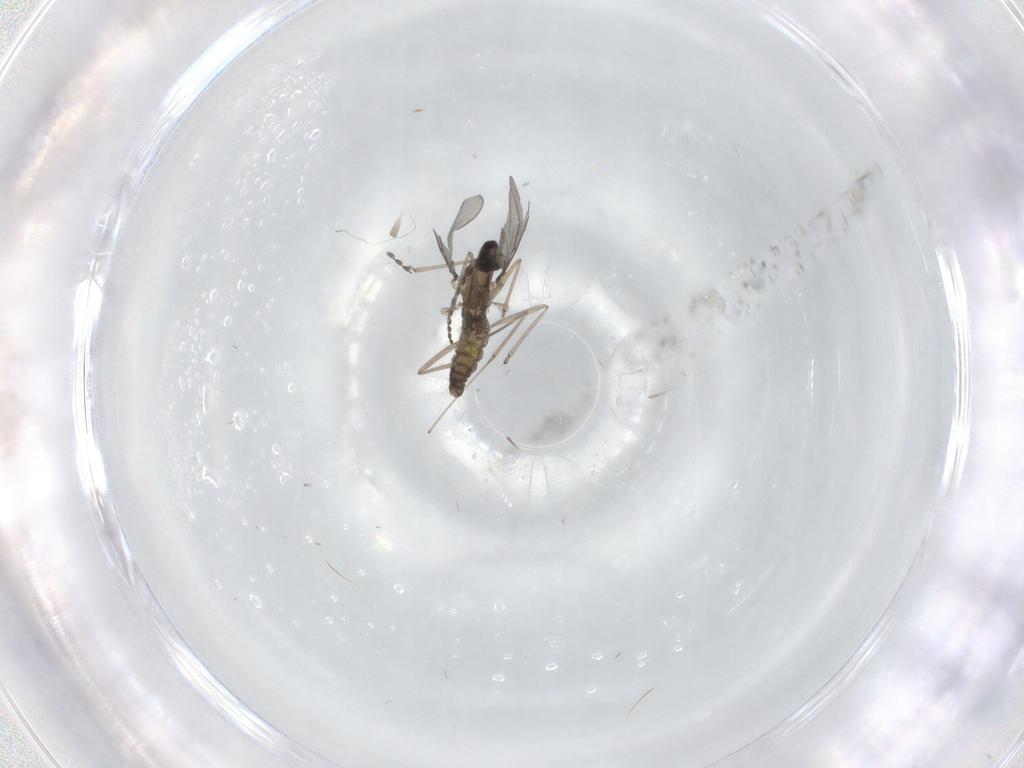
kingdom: Animalia
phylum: Arthropoda
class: Insecta
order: Diptera
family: Cecidomyiidae
